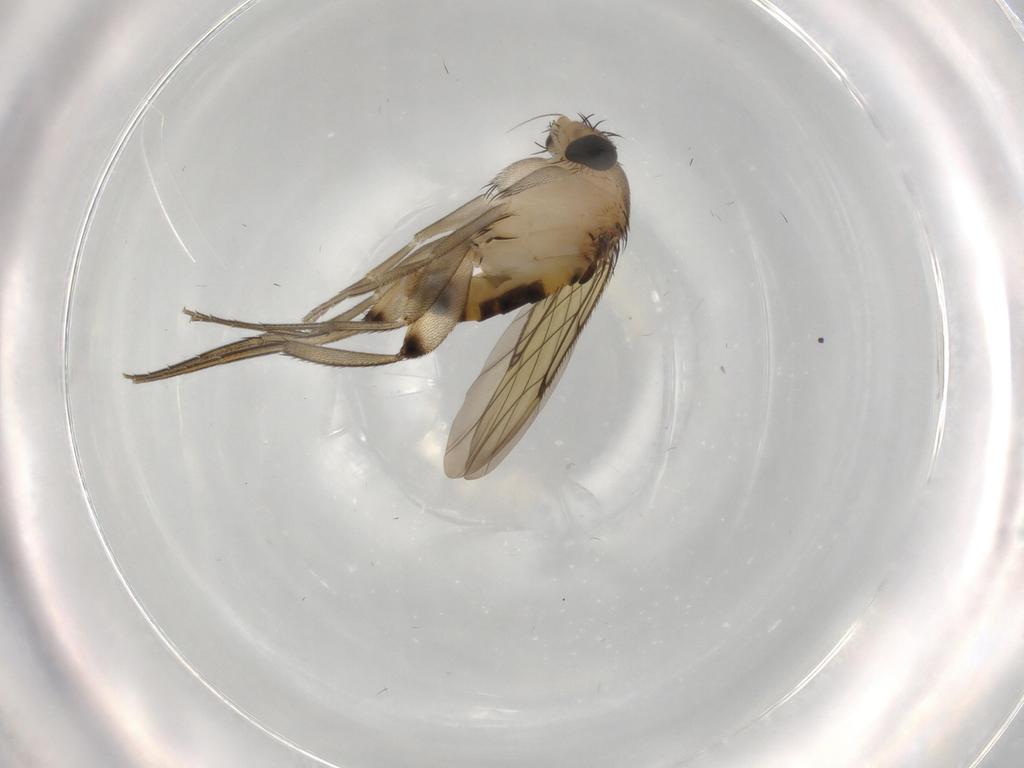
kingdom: Animalia
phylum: Arthropoda
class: Insecta
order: Diptera
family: Phoridae
